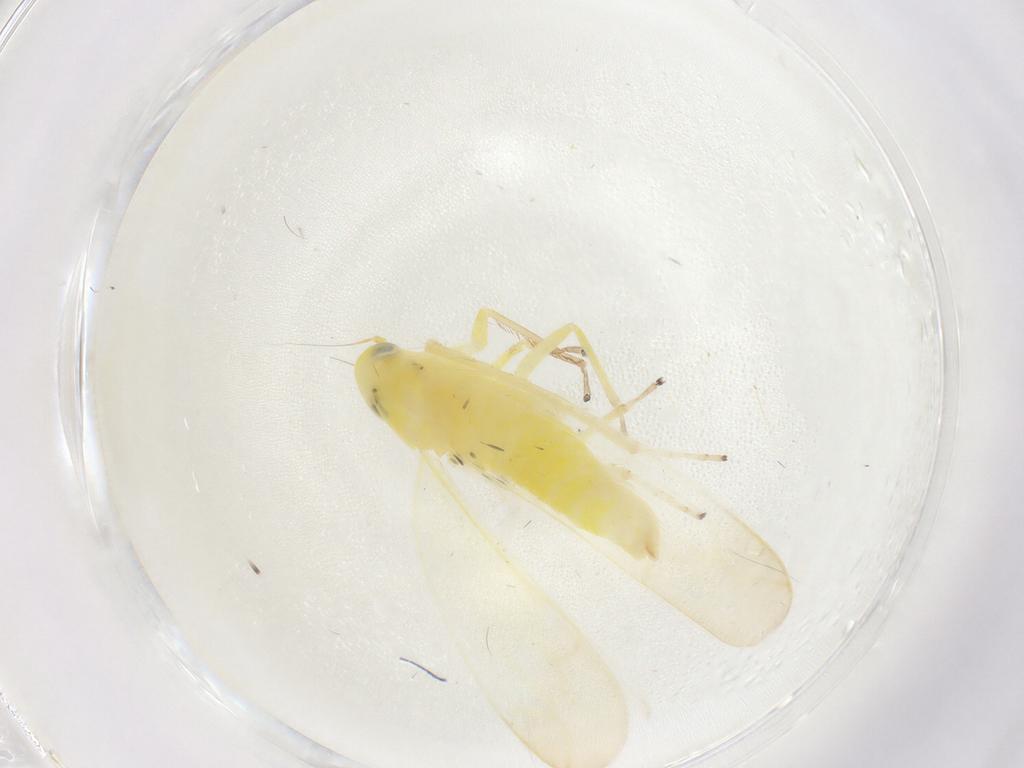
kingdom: Animalia
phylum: Arthropoda
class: Insecta
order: Hemiptera
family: Cicadellidae
